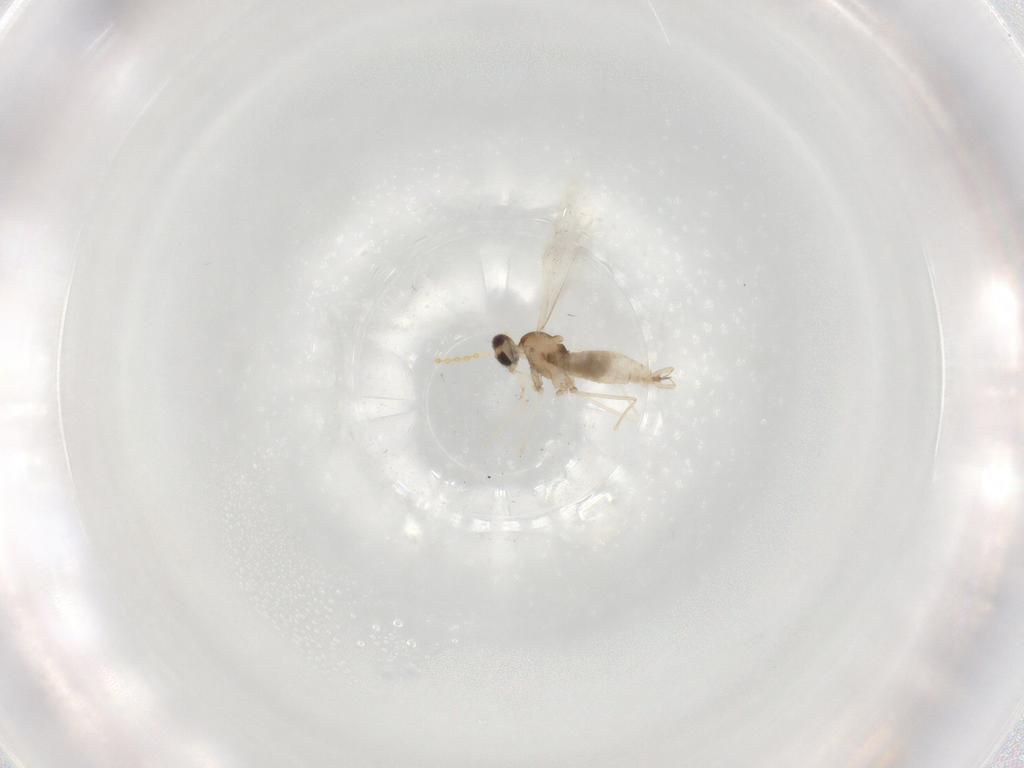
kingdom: Animalia
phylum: Arthropoda
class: Insecta
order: Diptera
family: Cecidomyiidae
